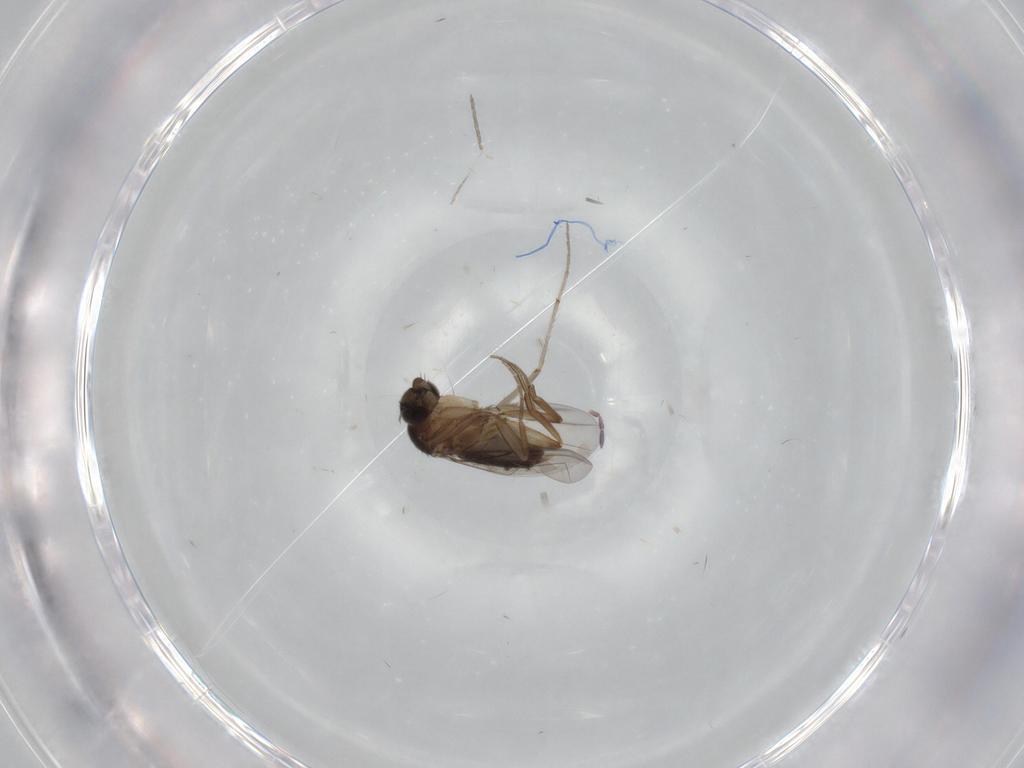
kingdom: Animalia
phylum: Arthropoda
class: Insecta
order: Diptera
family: Phoridae
